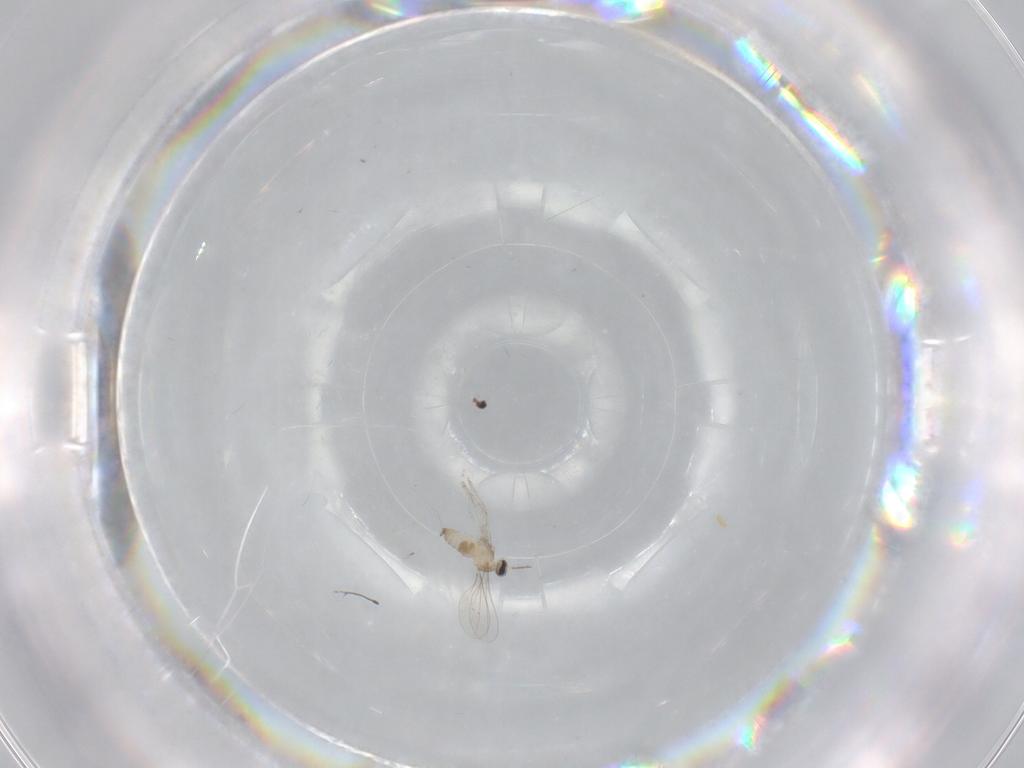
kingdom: Animalia
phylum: Arthropoda
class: Insecta
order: Diptera
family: Cecidomyiidae
